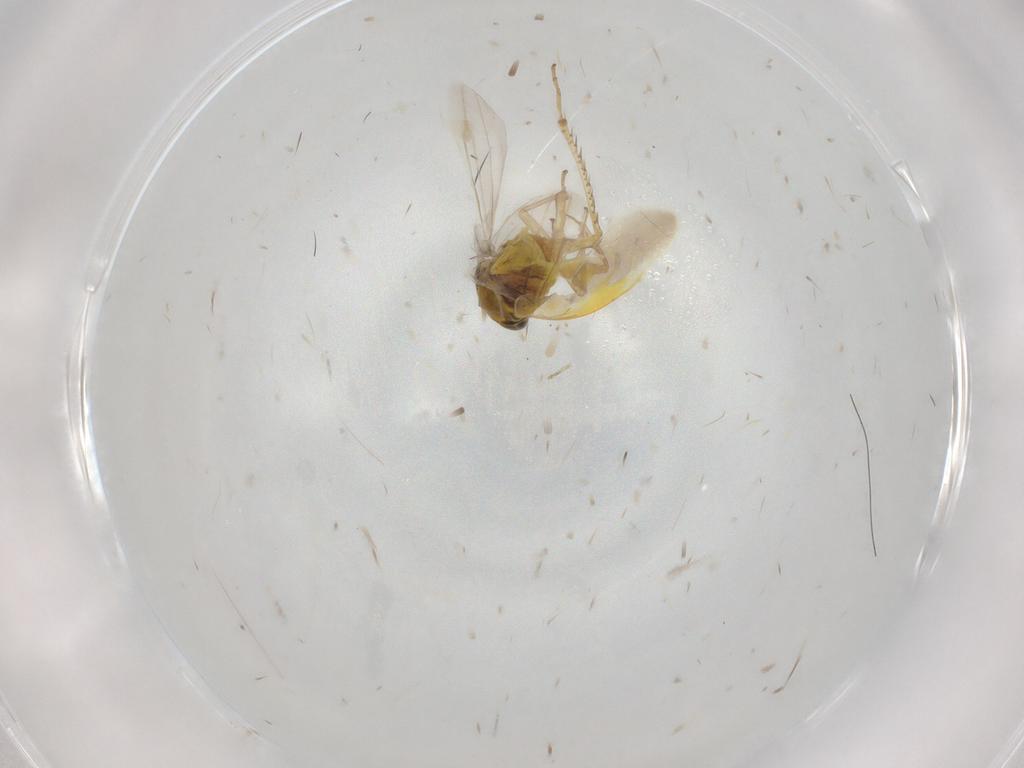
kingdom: Animalia
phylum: Arthropoda
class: Insecta
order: Hemiptera
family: Cicadellidae
